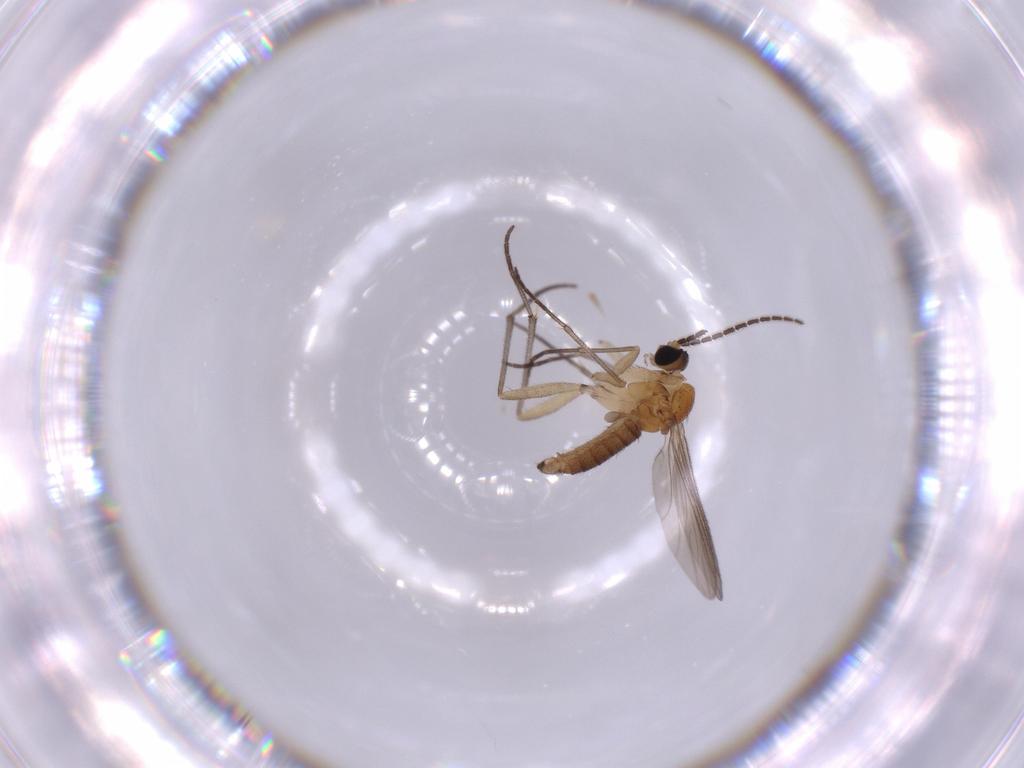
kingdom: Animalia
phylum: Arthropoda
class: Insecta
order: Diptera
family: Sciaridae
